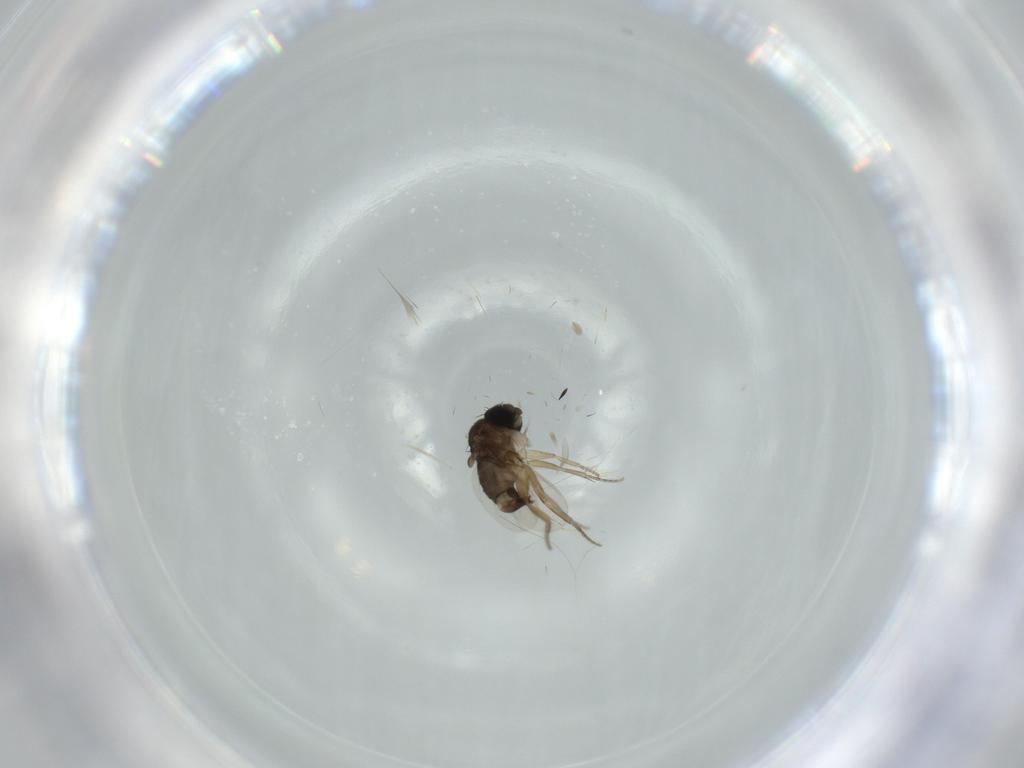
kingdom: Animalia
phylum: Arthropoda
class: Insecta
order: Diptera
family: Phoridae
